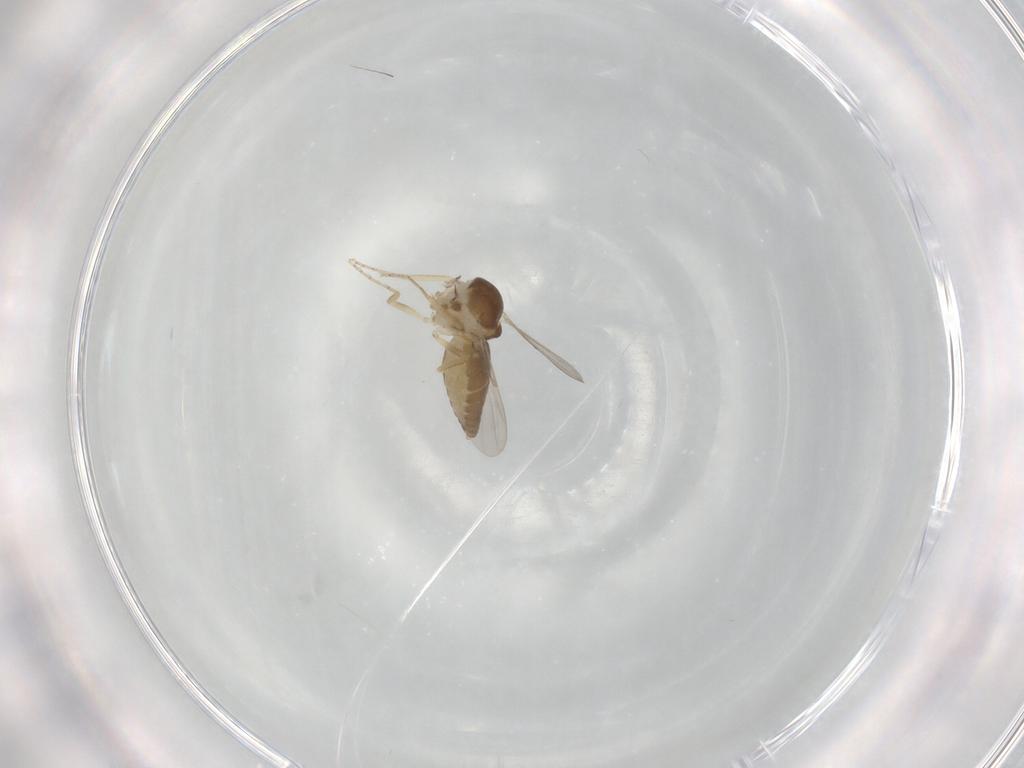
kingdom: Animalia
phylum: Arthropoda
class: Insecta
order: Diptera
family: Ceratopogonidae
